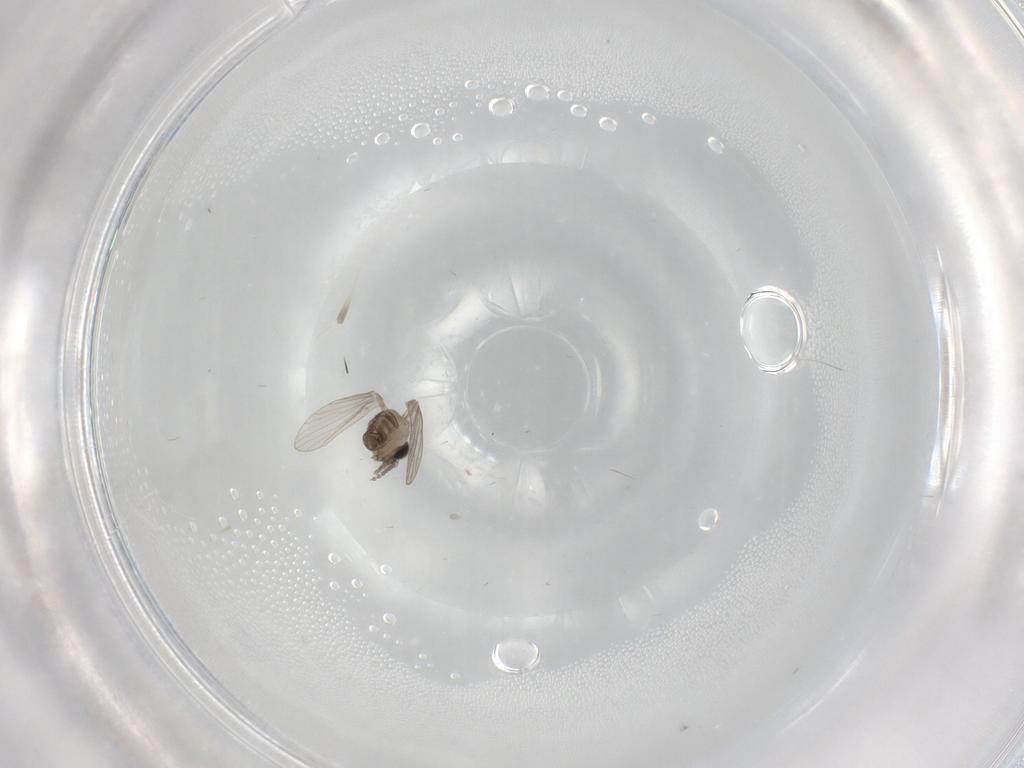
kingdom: Animalia
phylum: Arthropoda
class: Insecta
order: Diptera
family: Psychodidae
